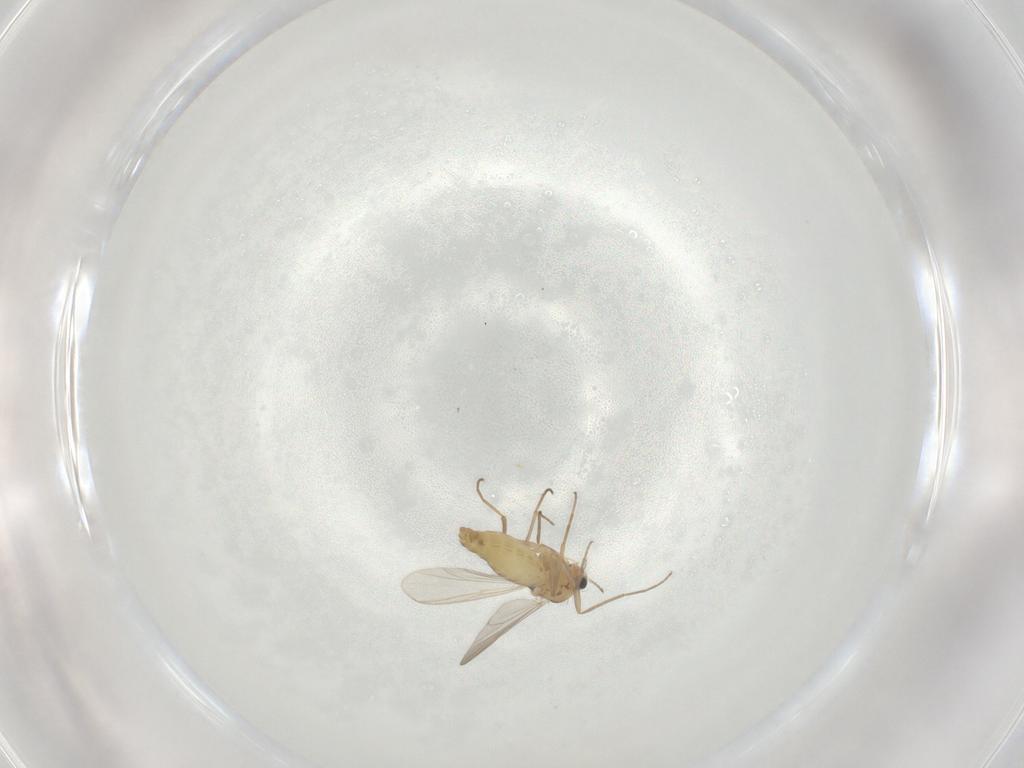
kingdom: Animalia
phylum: Arthropoda
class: Insecta
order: Diptera
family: Chironomidae
